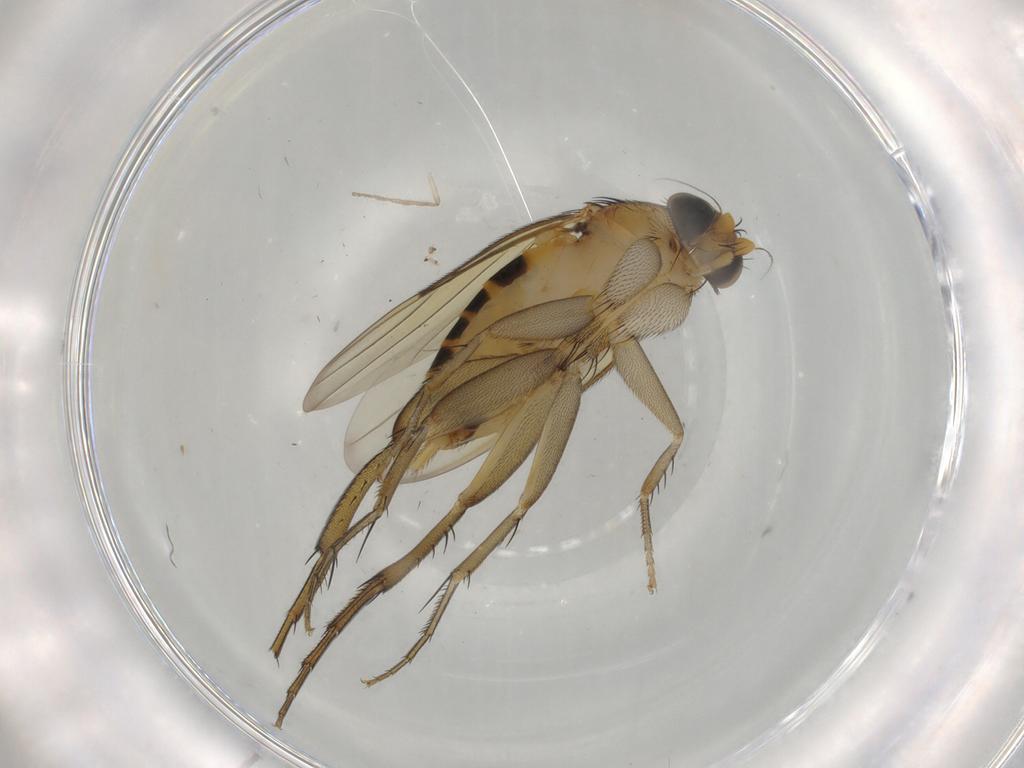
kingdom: Animalia
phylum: Arthropoda
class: Insecta
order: Diptera
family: Phoridae
